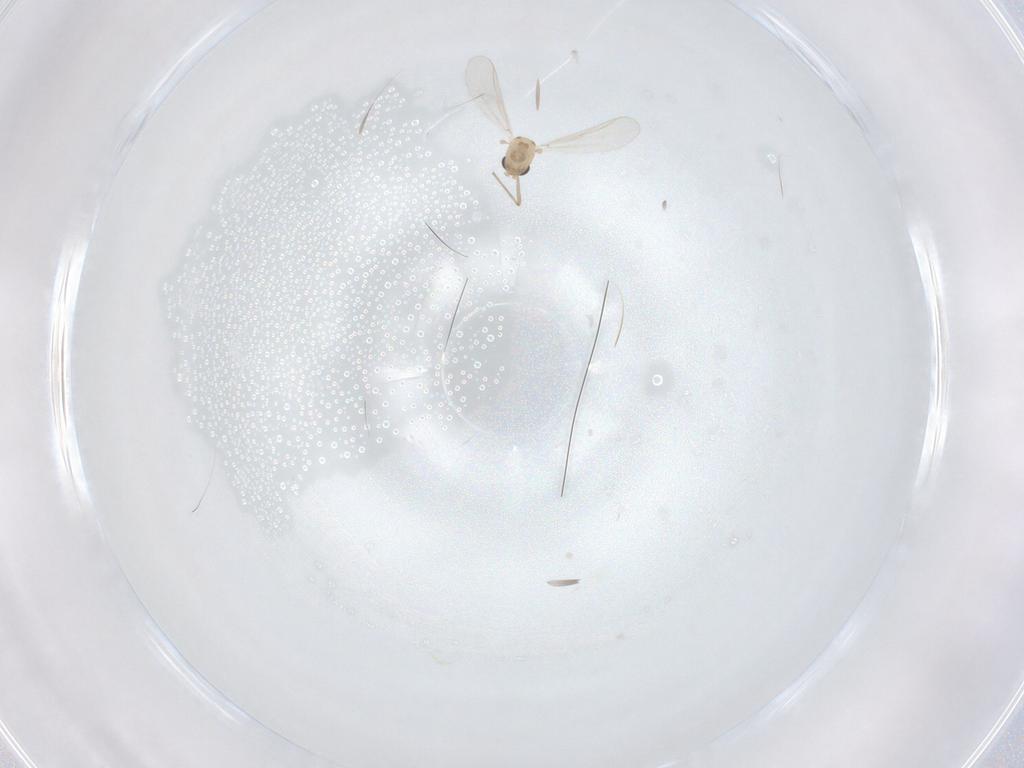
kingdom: Animalia
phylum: Arthropoda
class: Insecta
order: Diptera
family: Chironomidae
